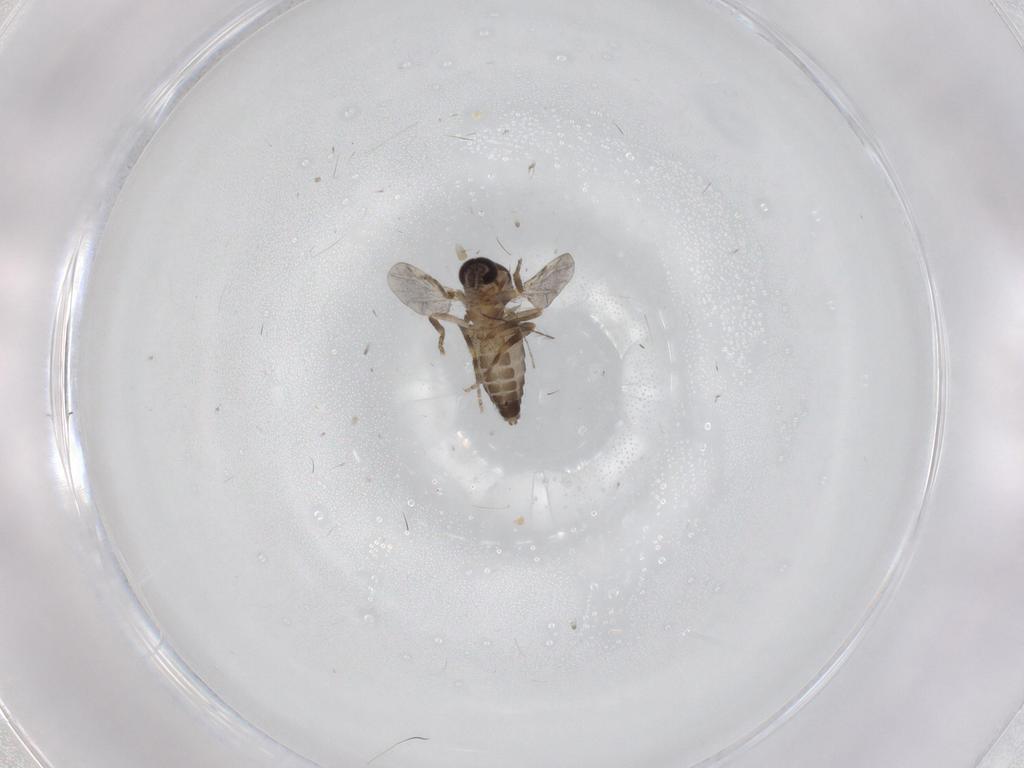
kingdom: Animalia
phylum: Arthropoda
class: Insecta
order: Diptera
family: Ceratopogonidae
